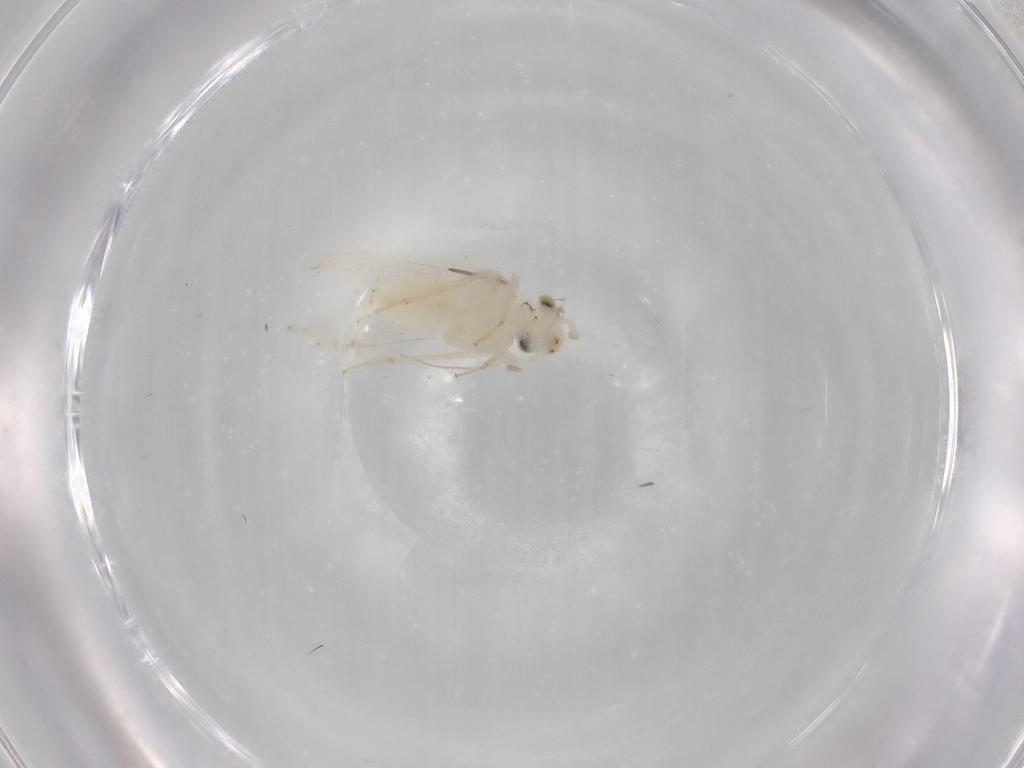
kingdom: Animalia
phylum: Arthropoda
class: Insecta
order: Psocodea
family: Lepidopsocidae
